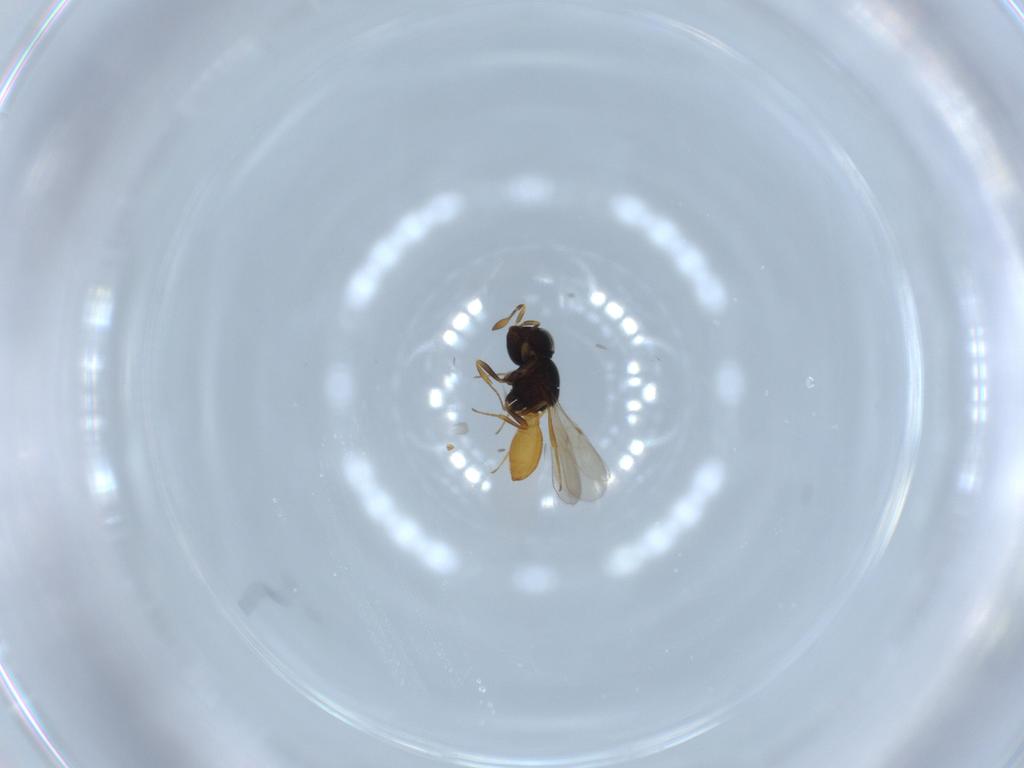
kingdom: Animalia
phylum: Arthropoda
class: Insecta
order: Hymenoptera
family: Scelionidae
